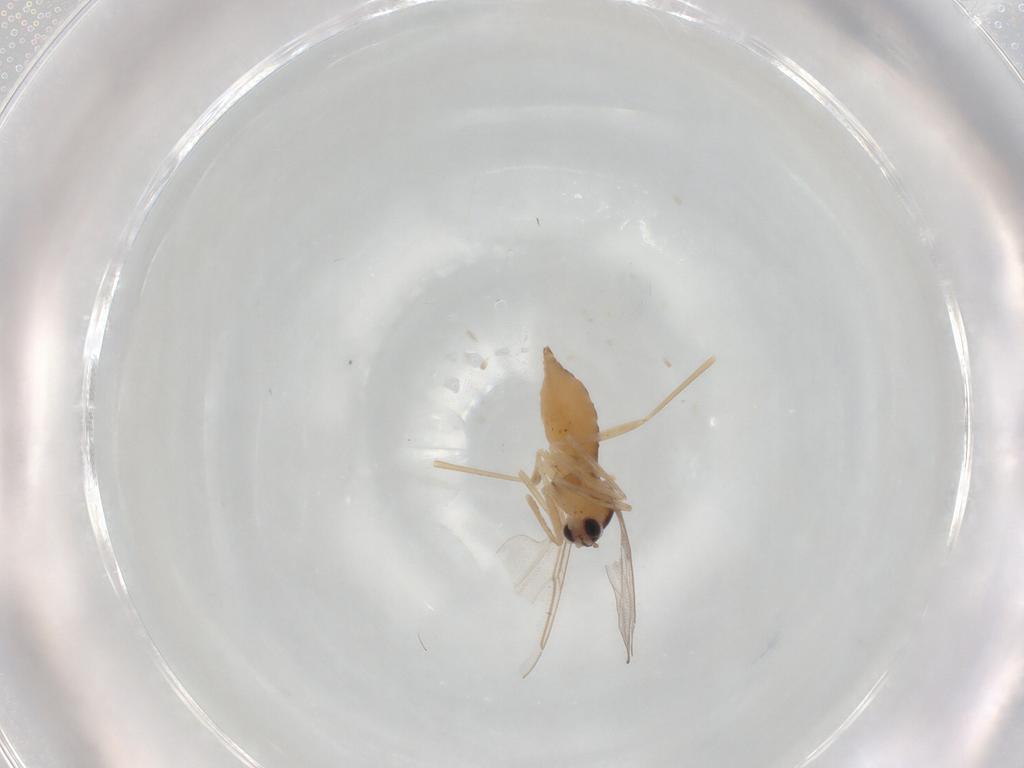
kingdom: Animalia
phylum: Arthropoda
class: Insecta
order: Diptera
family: Cecidomyiidae
